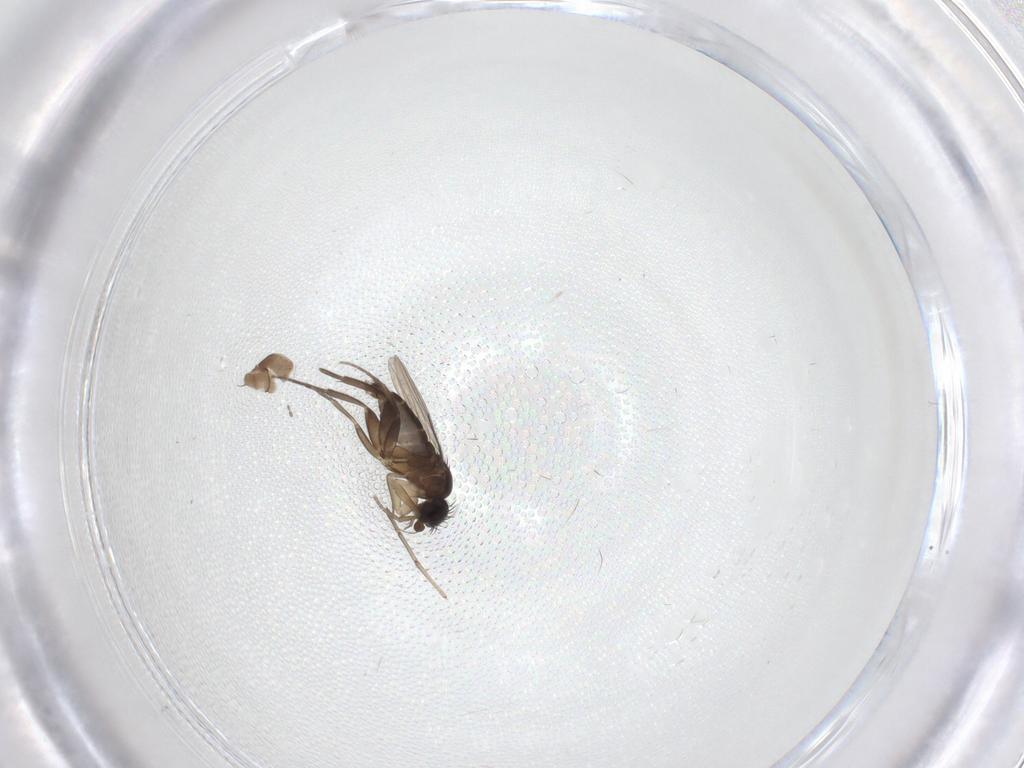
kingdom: Animalia
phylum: Arthropoda
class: Insecta
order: Diptera
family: Phoridae
